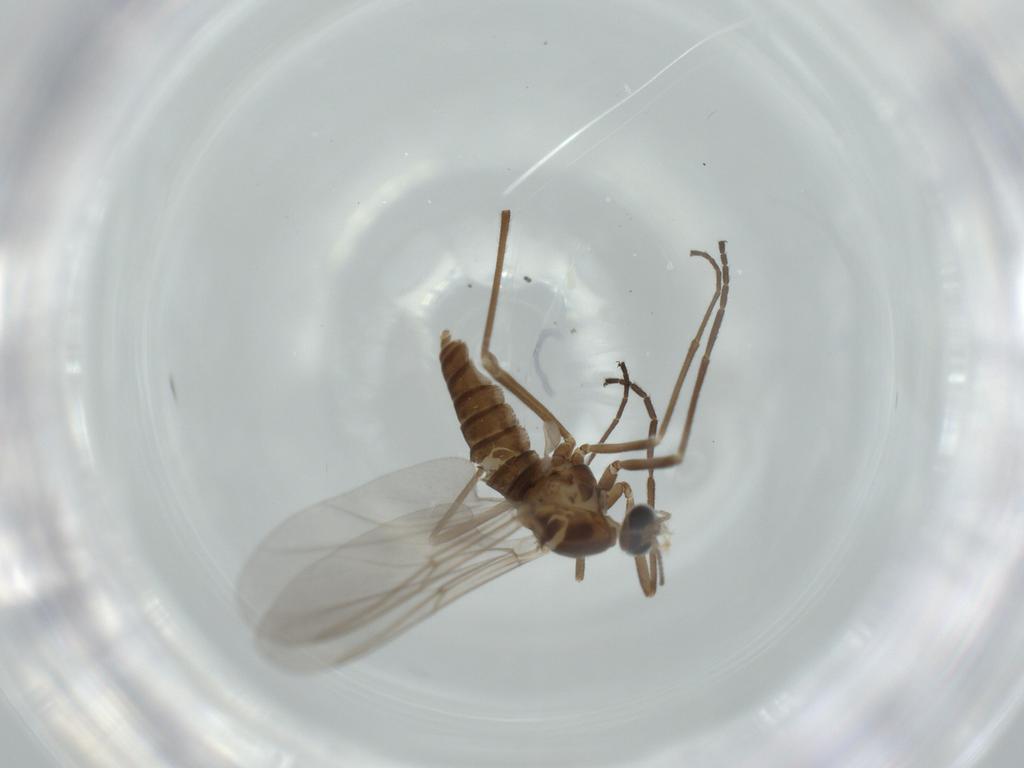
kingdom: Animalia
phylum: Arthropoda
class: Insecta
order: Diptera
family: Cecidomyiidae
